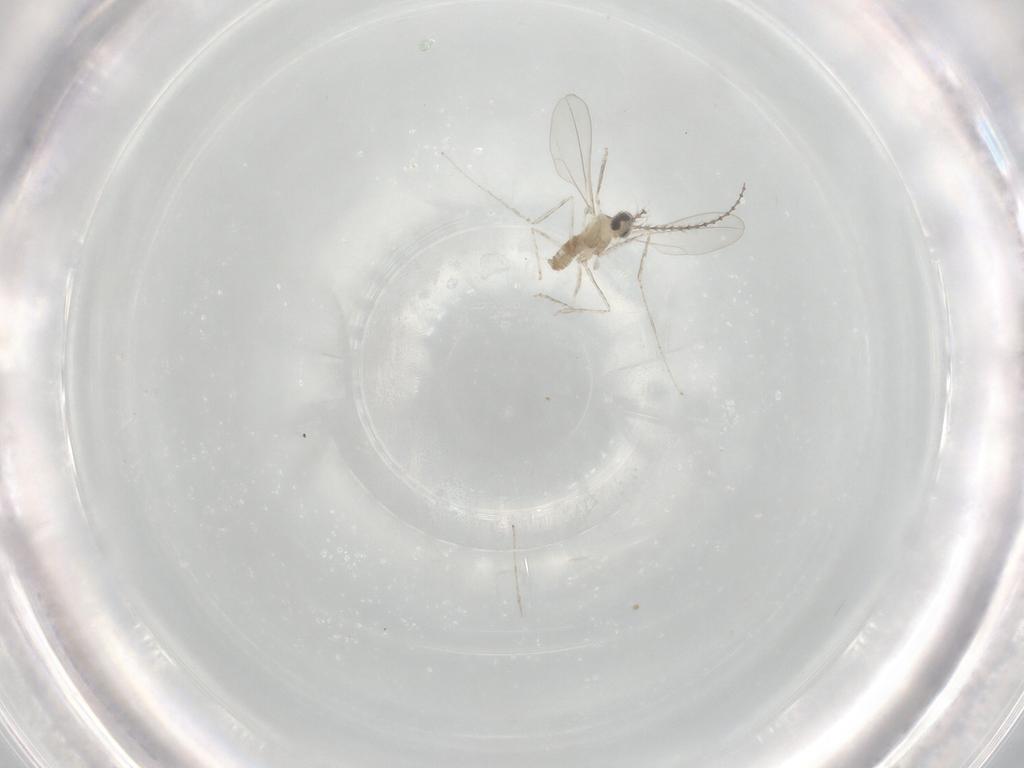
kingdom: Animalia
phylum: Arthropoda
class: Insecta
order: Diptera
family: Cecidomyiidae
